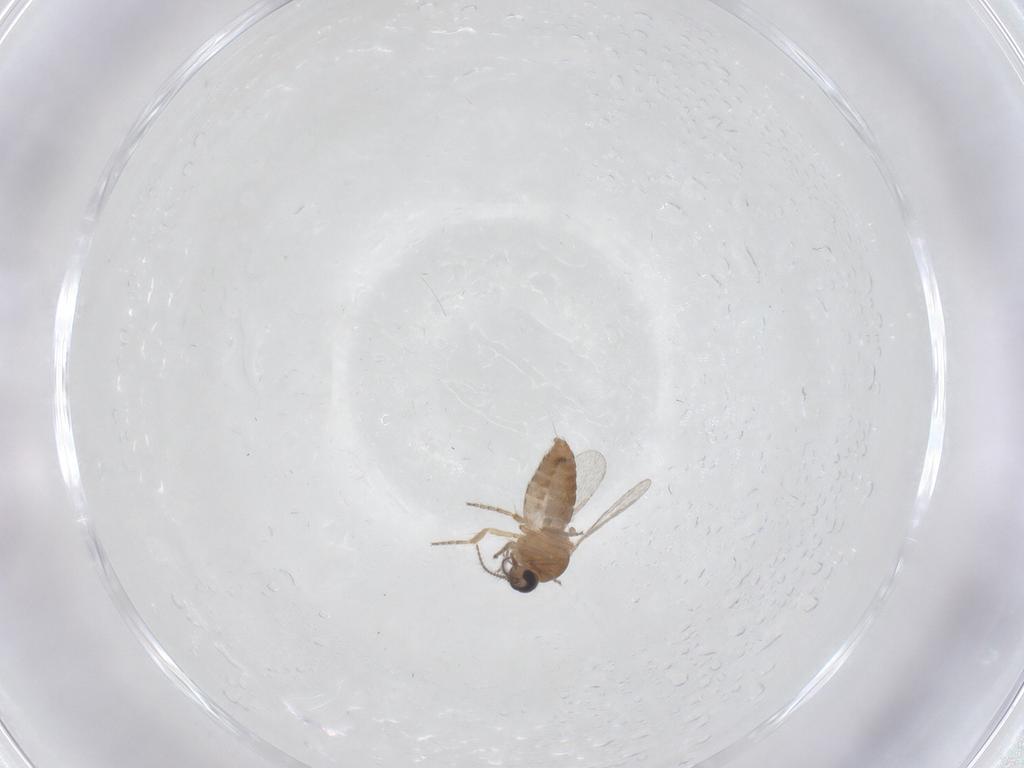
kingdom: Animalia
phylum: Arthropoda
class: Insecta
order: Diptera
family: Ceratopogonidae
